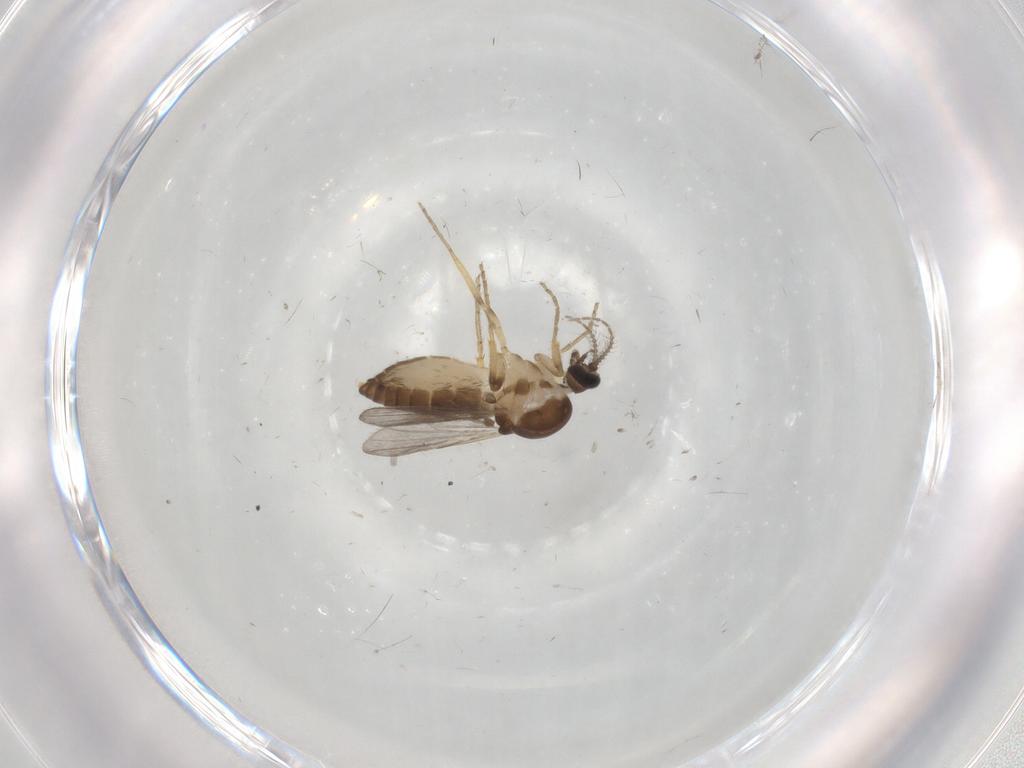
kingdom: Animalia
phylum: Arthropoda
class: Insecta
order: Diptera
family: Ceratopogonidae
